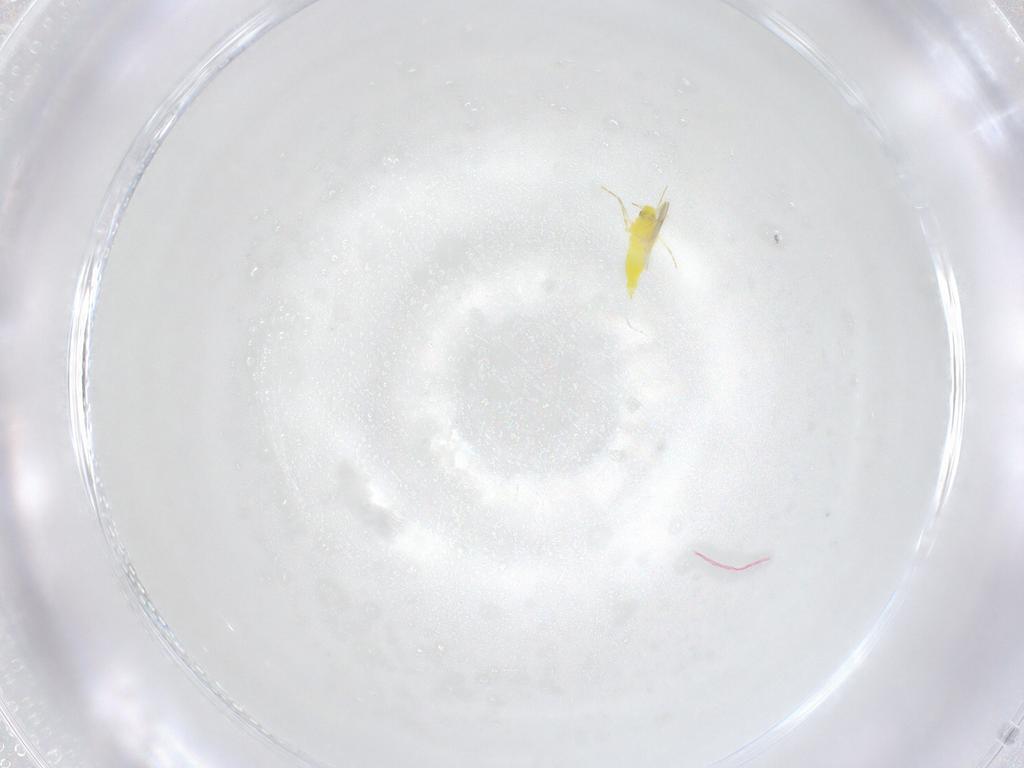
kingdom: Animalia
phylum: Arthropoda
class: Insecta
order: Hemiptera
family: Aleyrodidae
